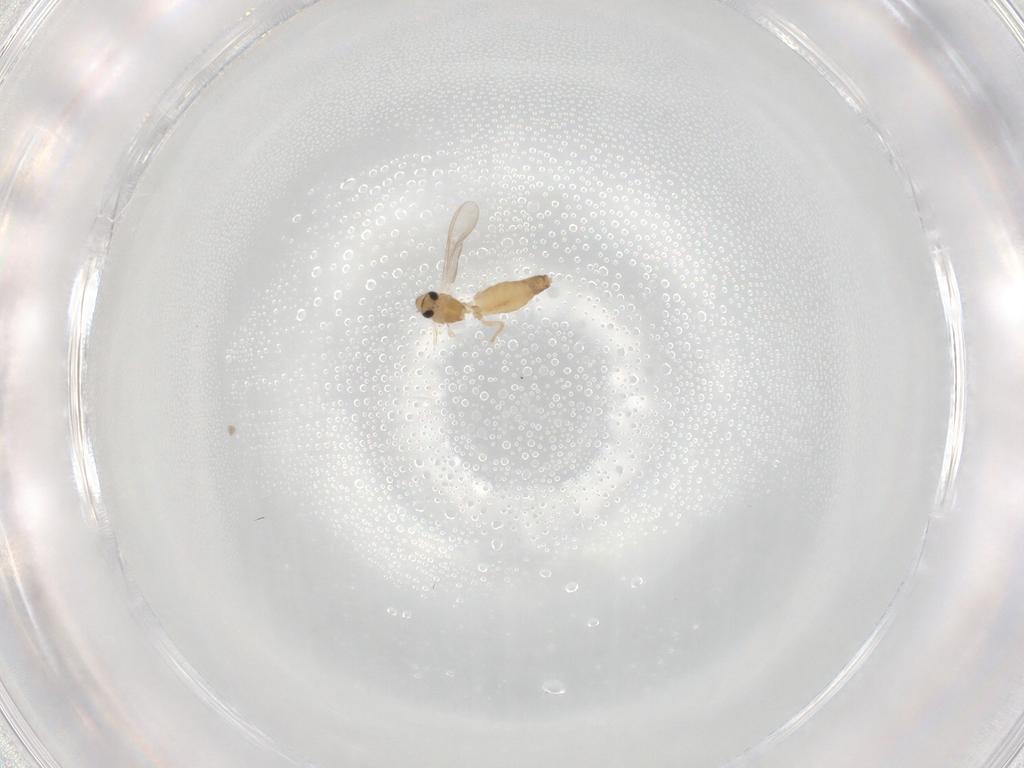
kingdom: Animalia
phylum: Arthropoda
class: Insecta
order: Diptera
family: Chironomidae
